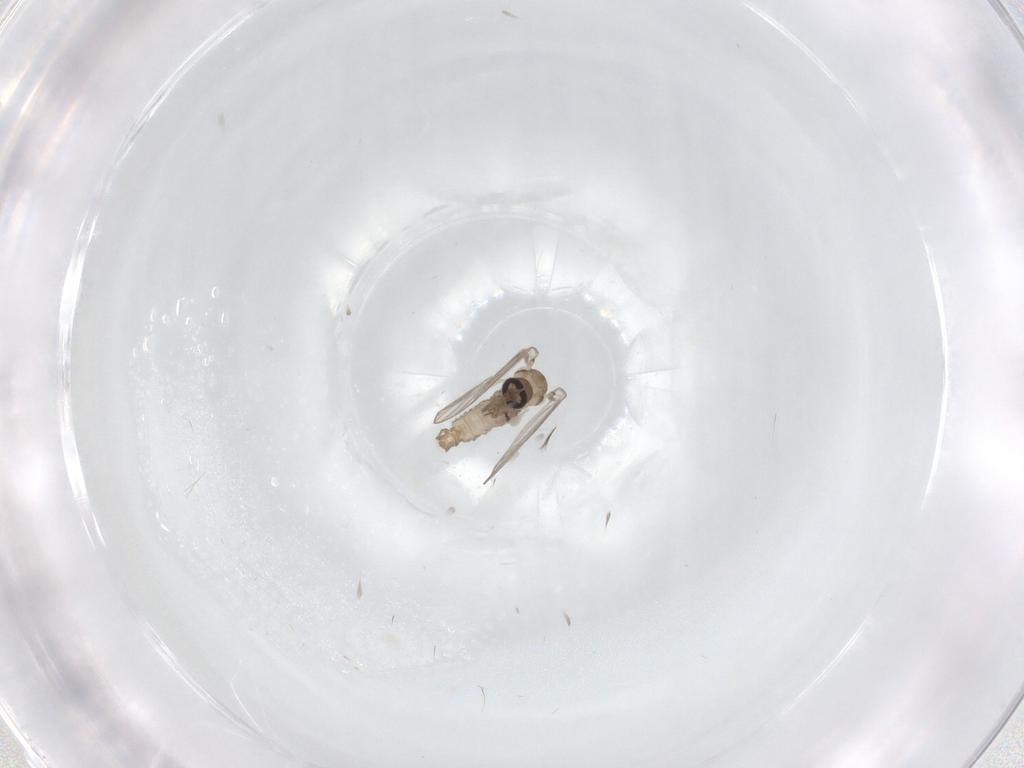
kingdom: Animalia
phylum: Arthropoda
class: Insecta
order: Diptera
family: Psychodidae
